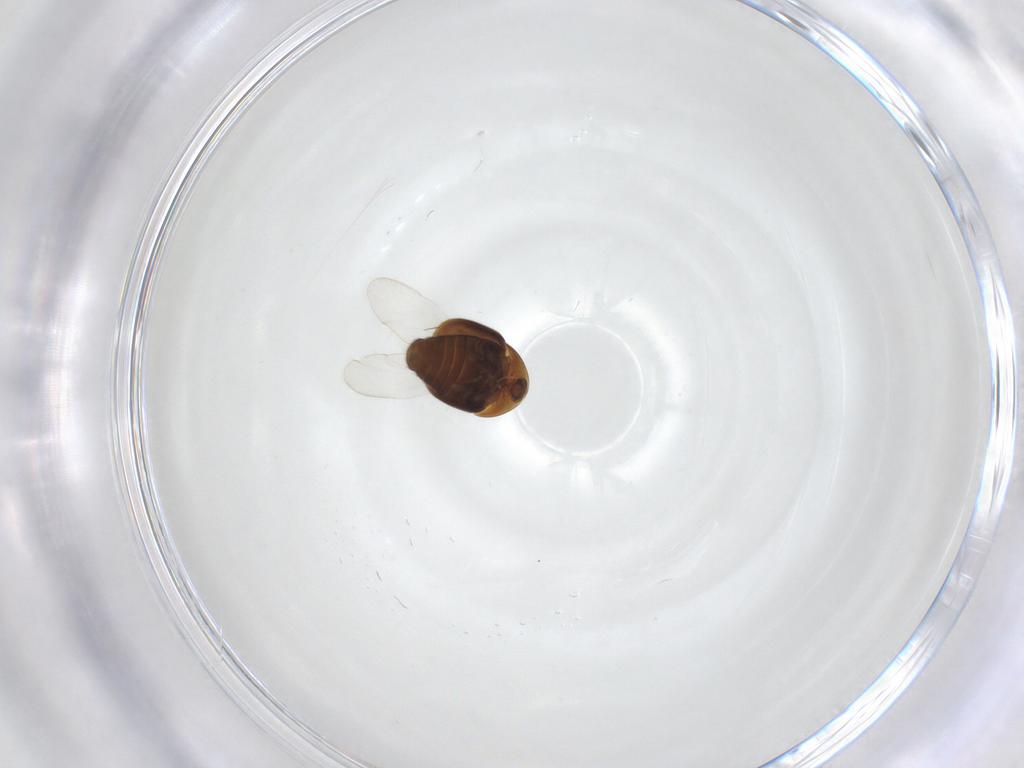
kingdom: Animalia
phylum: Arthropoda
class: Insecta
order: Coleoptera
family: Corylophidae
